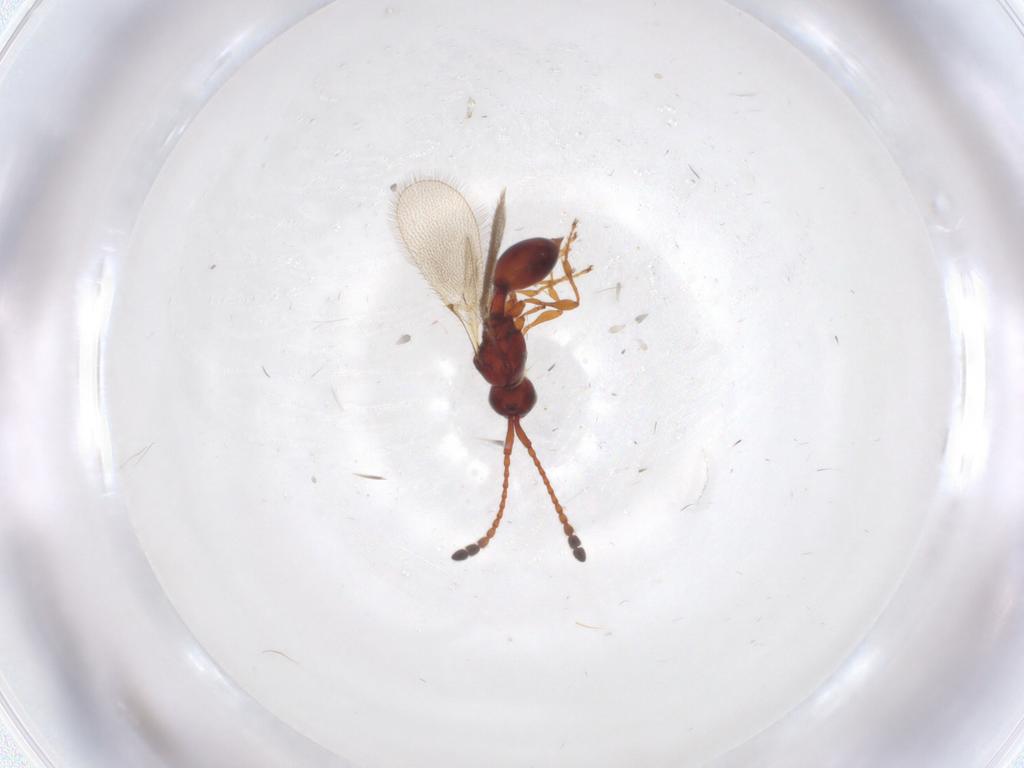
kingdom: Animalia
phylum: Arthropoda
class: Insecta
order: Hymenoptera
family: Diapriidae
